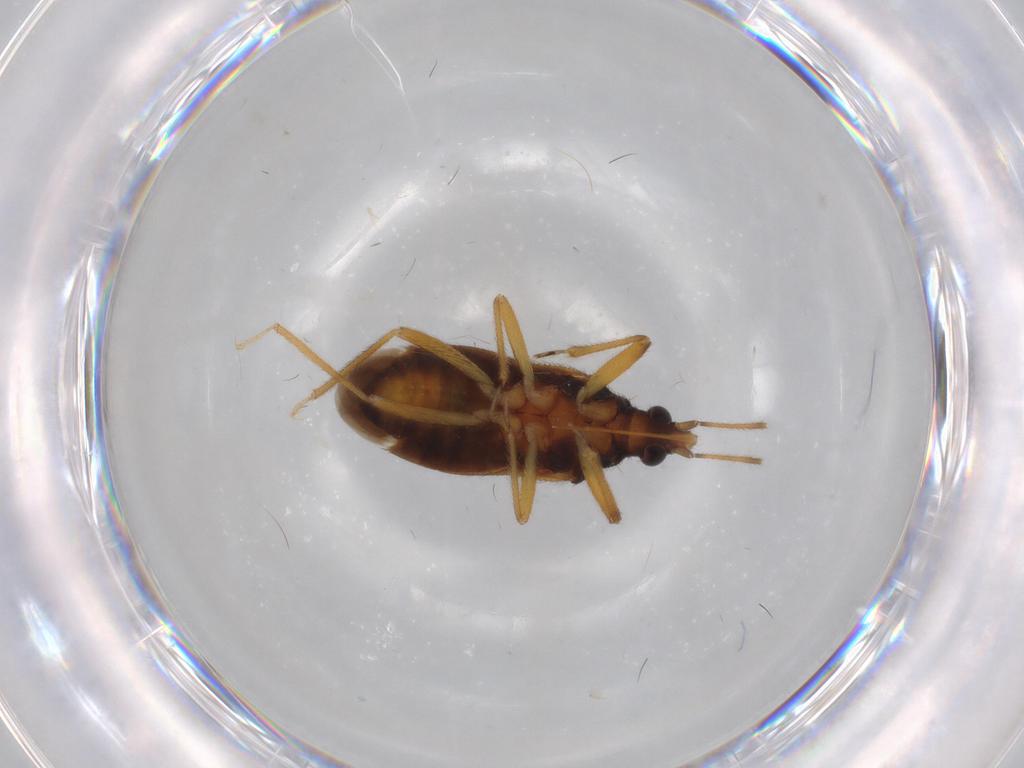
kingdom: Animalia
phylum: Arthropoda
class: Insecta
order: Hemiptera
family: Anthocoridae
